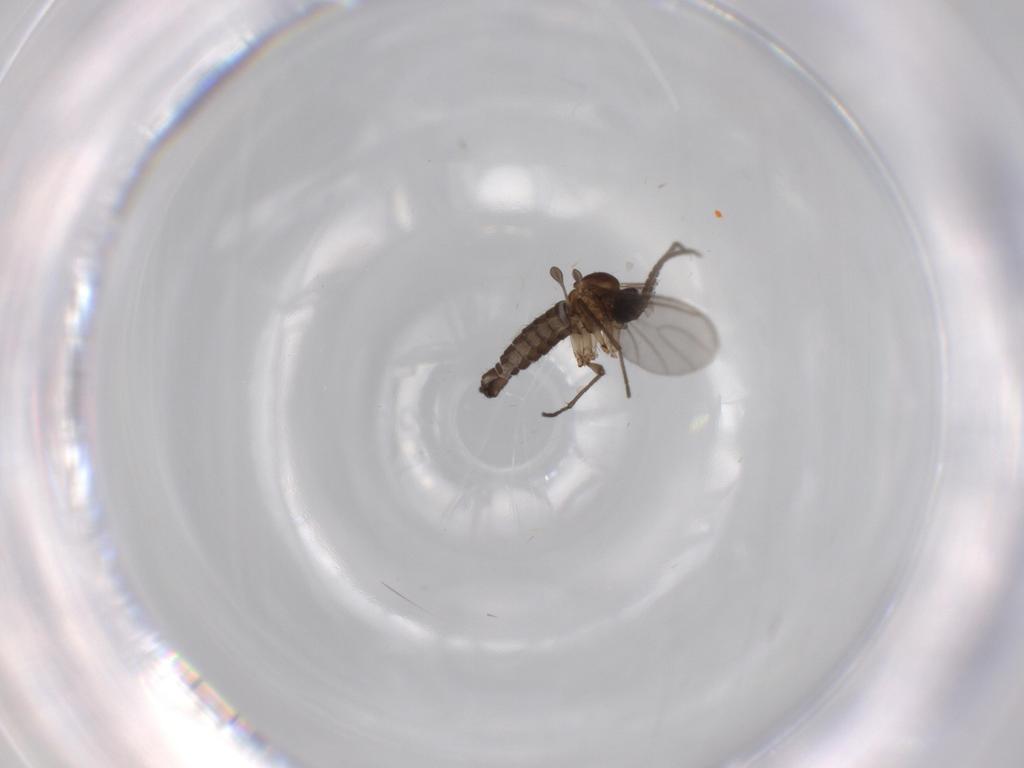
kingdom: Animalia
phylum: Arthropoda
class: Insecta
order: Diptera
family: Sciaridae
